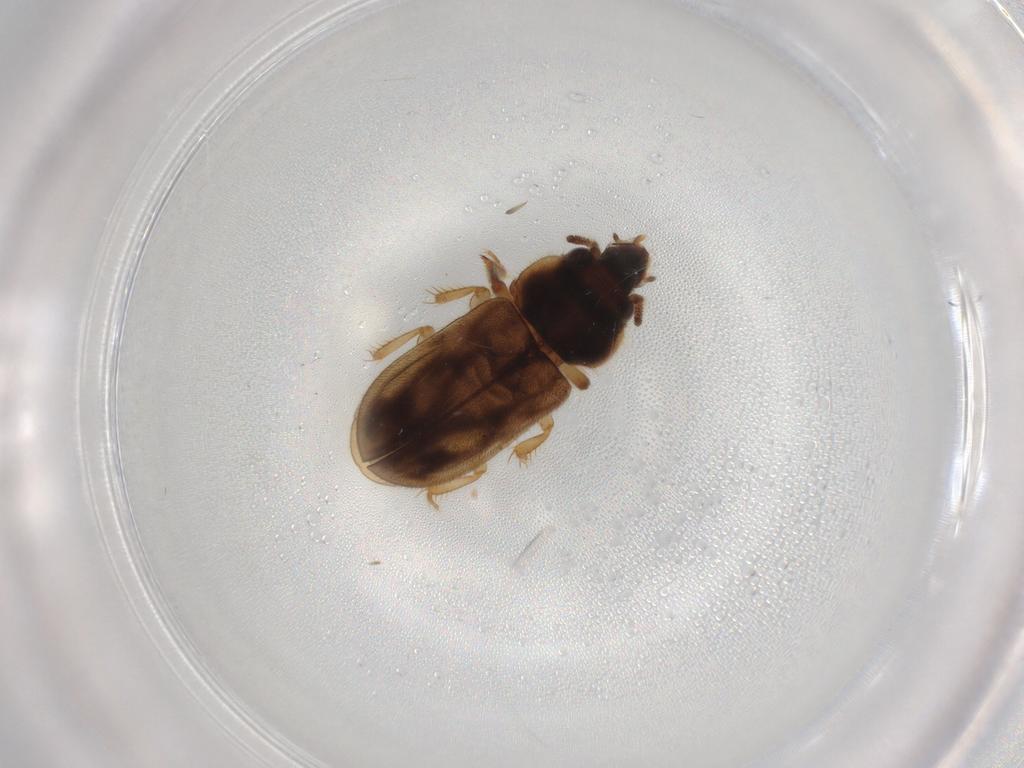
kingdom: Animalia
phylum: Arthropoda
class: Insecta
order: Coleoptera
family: Heteroceridae
